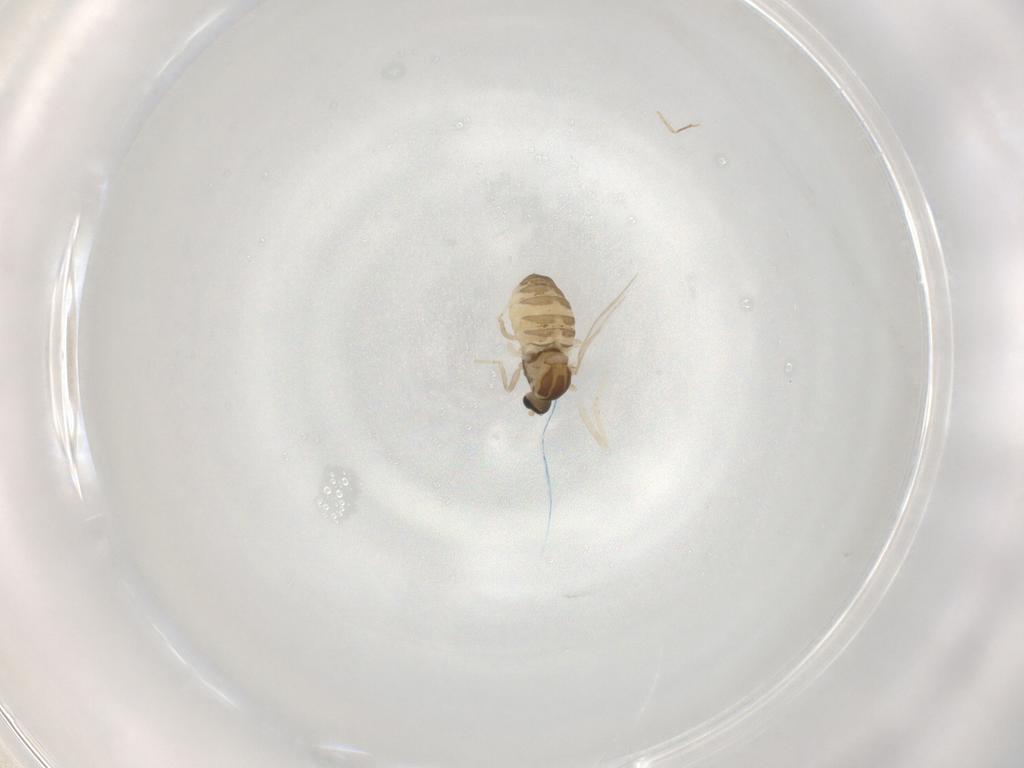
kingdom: Animalia
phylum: Arthropoda
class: Insecta
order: Diptera
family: Cecidomyiidae
